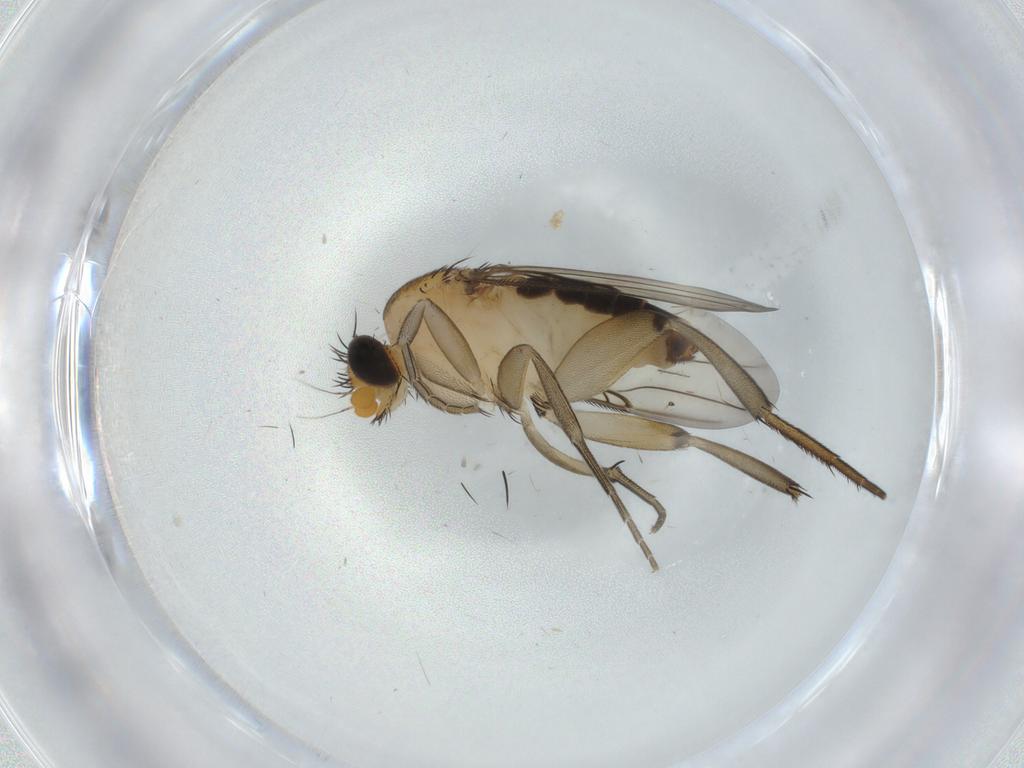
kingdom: Animalia
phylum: Arthropoda
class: Insecta
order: Diptera
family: Phoridae
